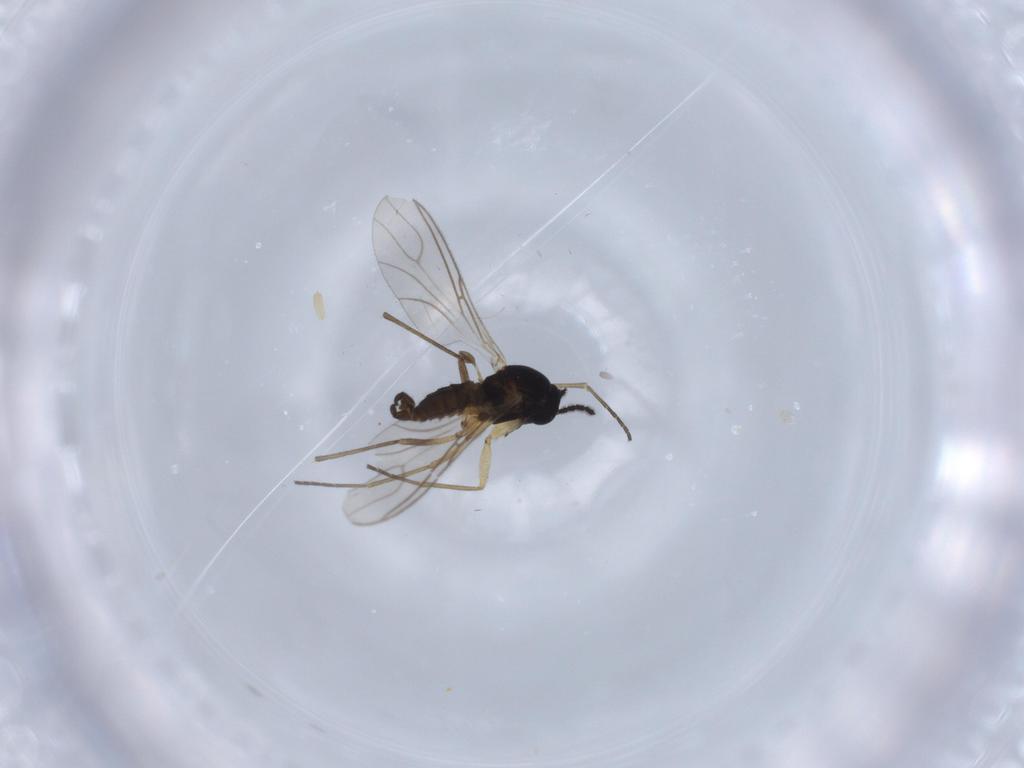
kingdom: Animalia
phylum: Arthropoda
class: Insecta
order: Diptera
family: Sciaridae
